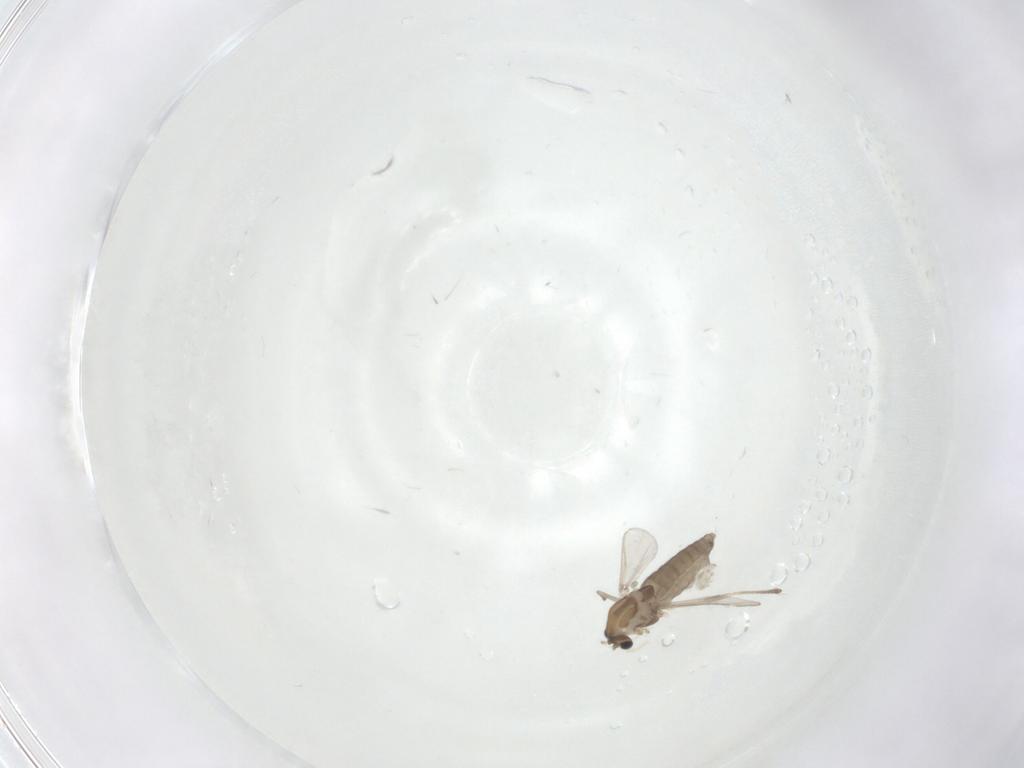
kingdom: Animalia
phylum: Arthropoda
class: Insecta
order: Diptera
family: Chironomidae
